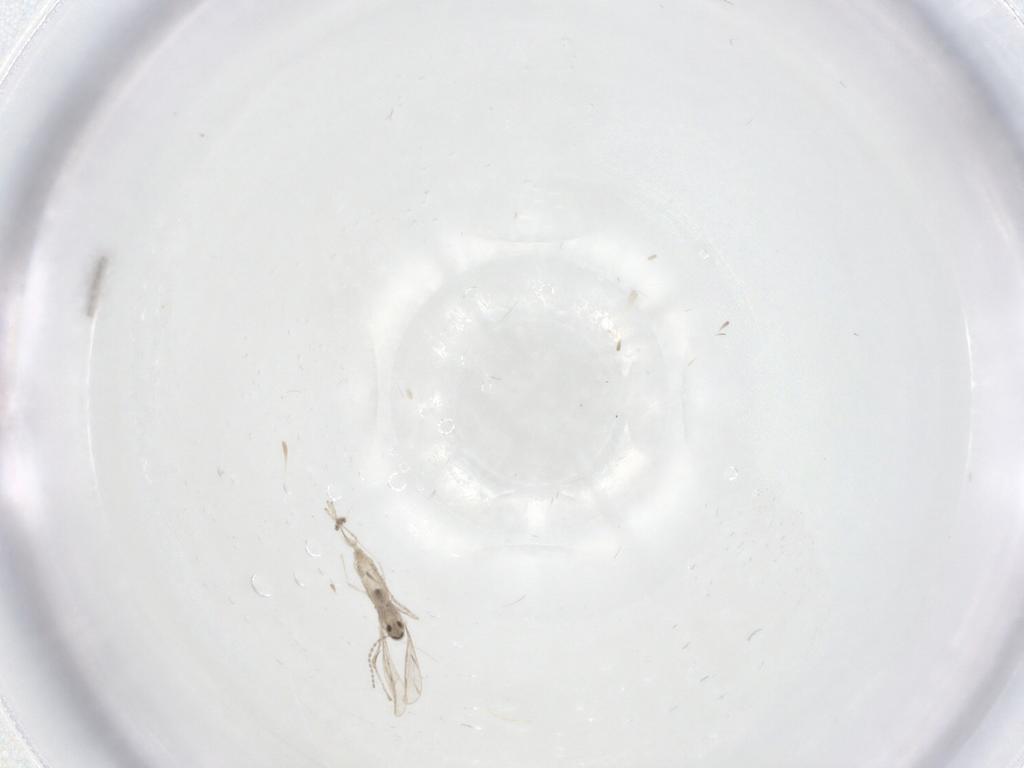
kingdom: Animalia
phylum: Arthropoda
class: Insecta
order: Diptera
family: Sciaridae
